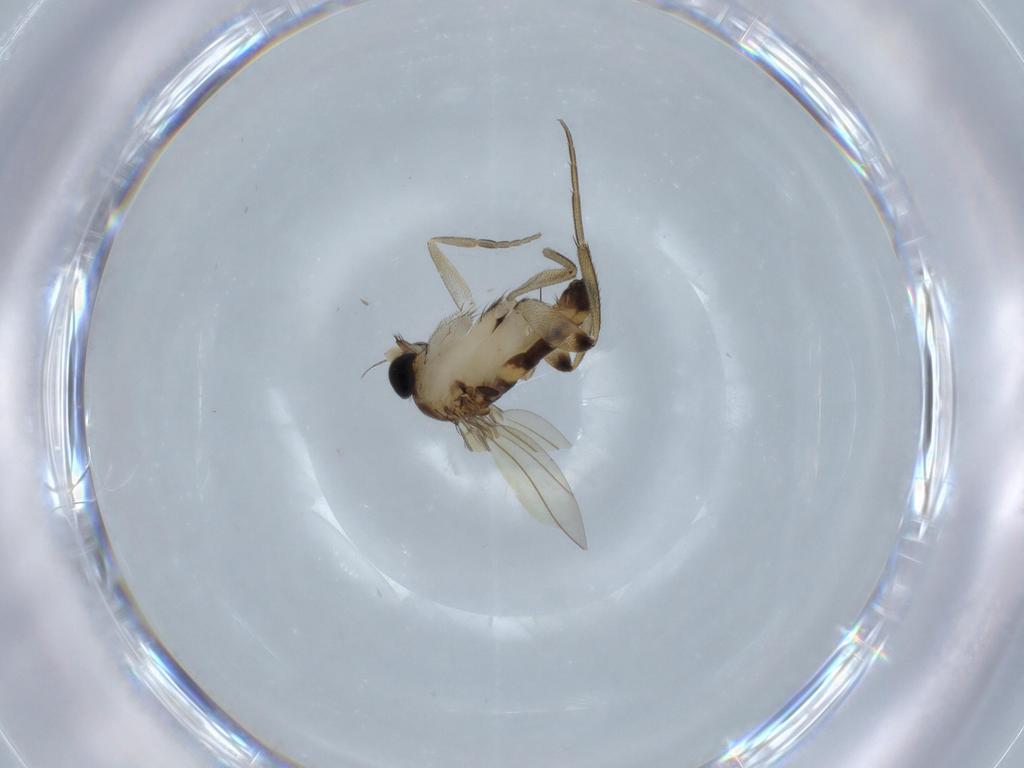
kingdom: Animalia
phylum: Arthropoda
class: Insecta
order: Diptera
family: Phoridae
